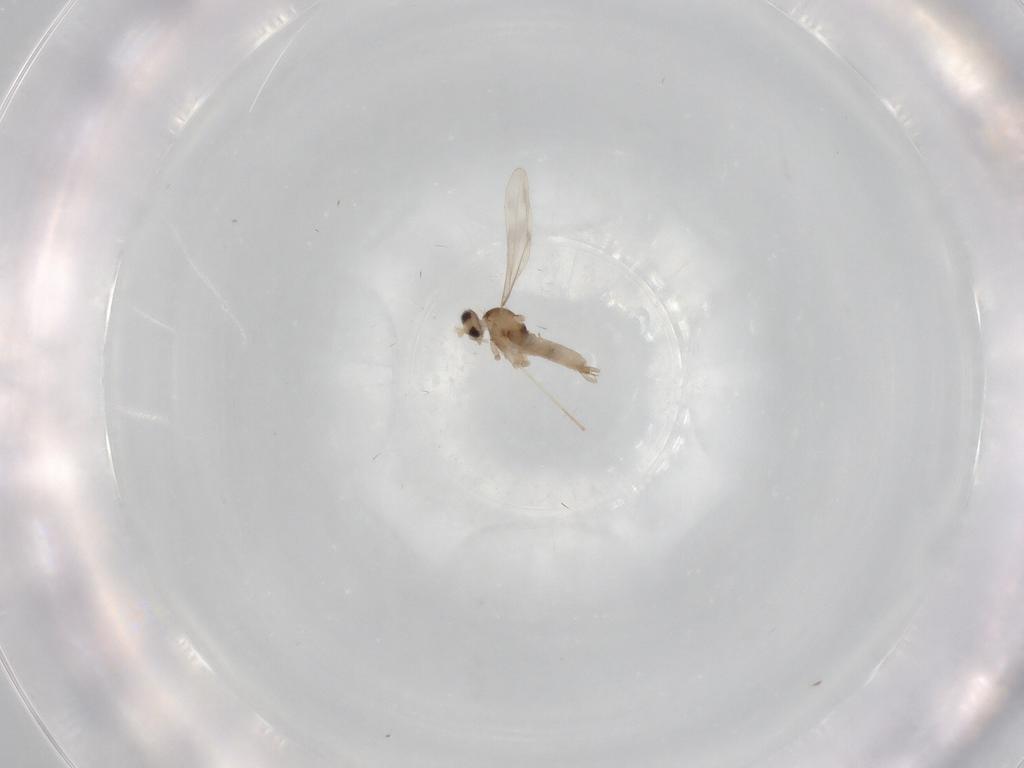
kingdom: Animalia
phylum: Arthropoda
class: Insecta
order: Diptera
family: Cecidomyiidae
